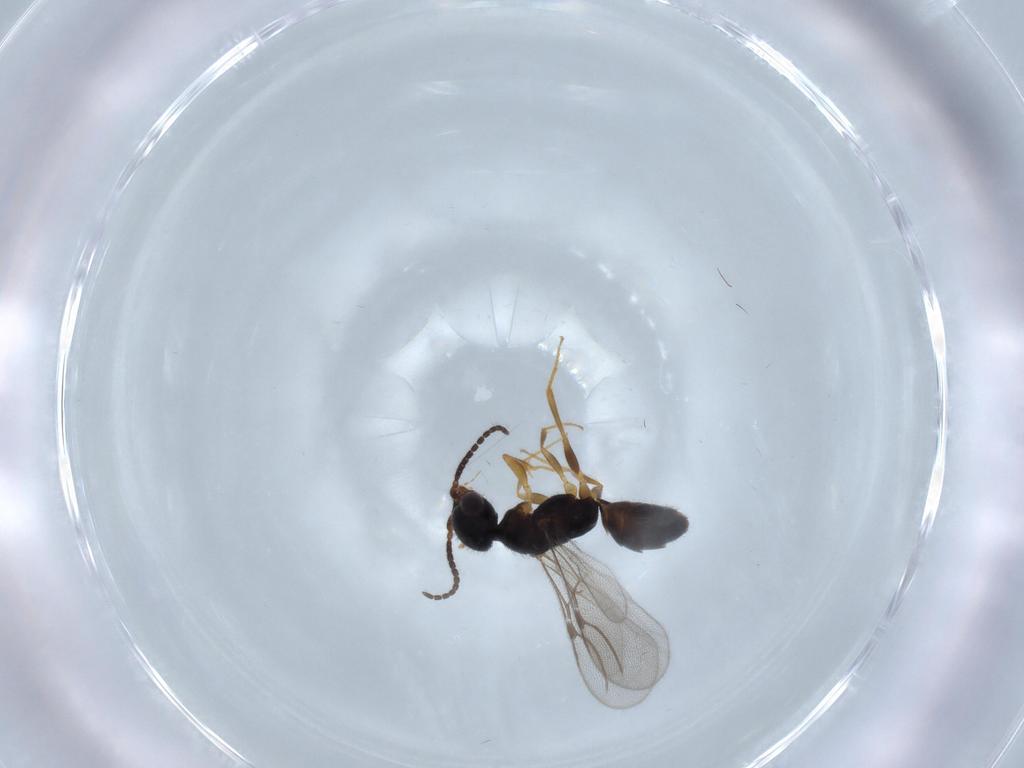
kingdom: Animalia
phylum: Arthropoda
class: Insecta
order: Hymenoptera
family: Bethylidae
